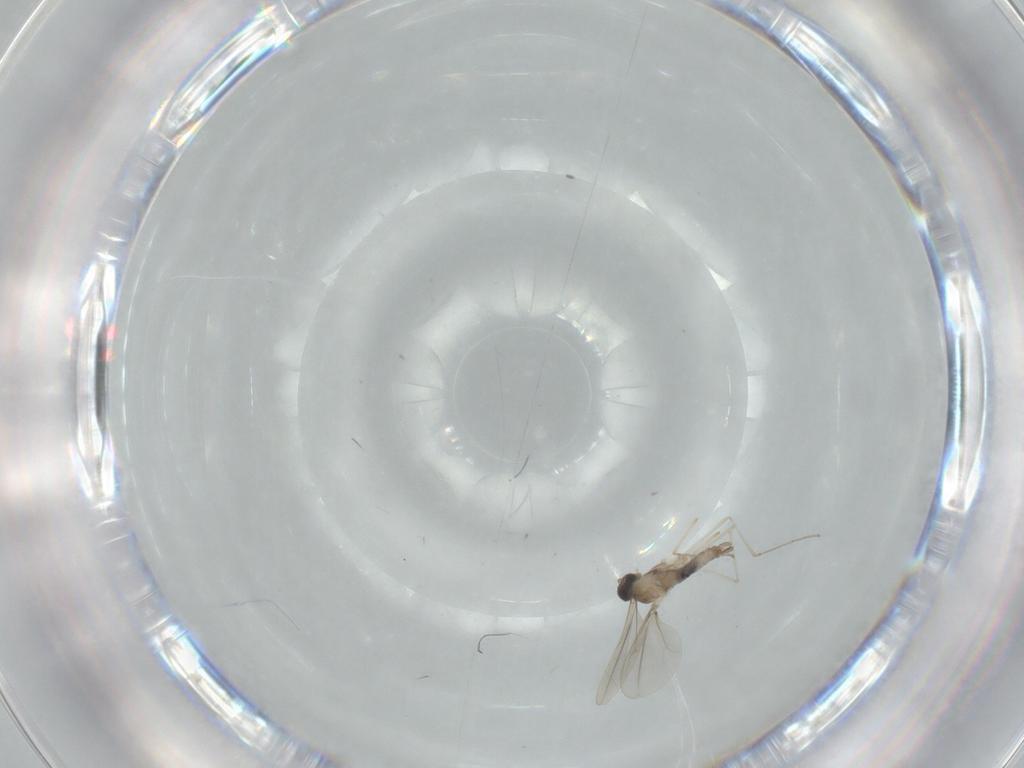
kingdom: Animalia
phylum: Arthropoda
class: Insecta
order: Diptera
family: Cecidomyiidae
